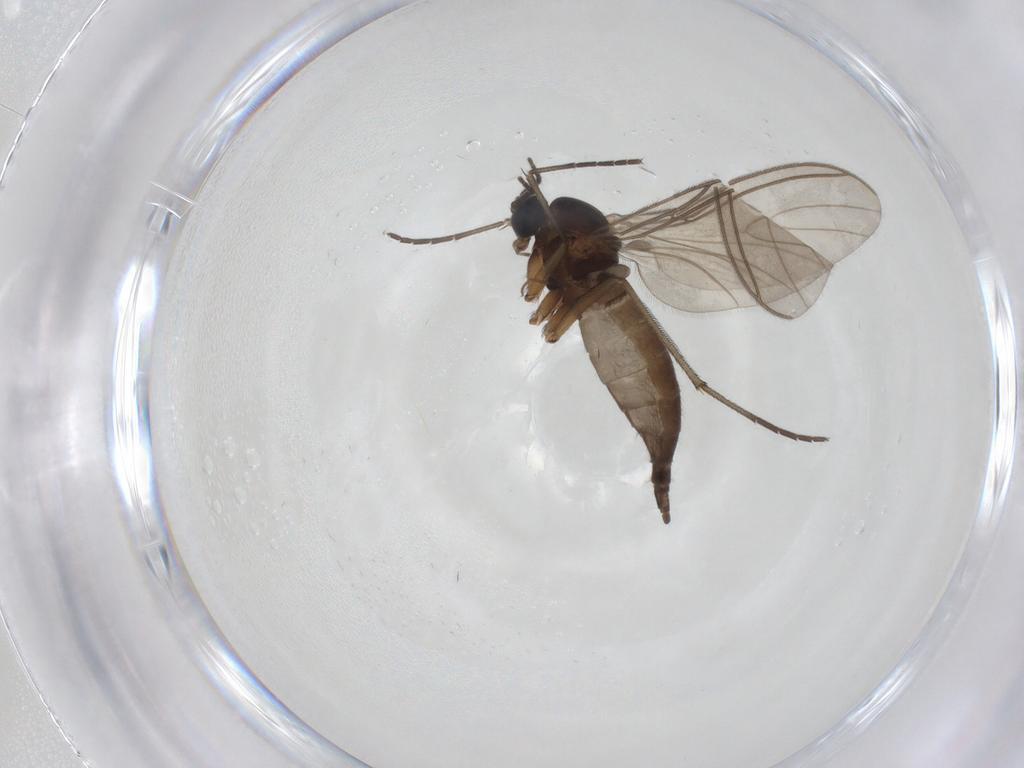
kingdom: Animalia
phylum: Arthropoda
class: Insecta
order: Diptera
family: Sciaridae
